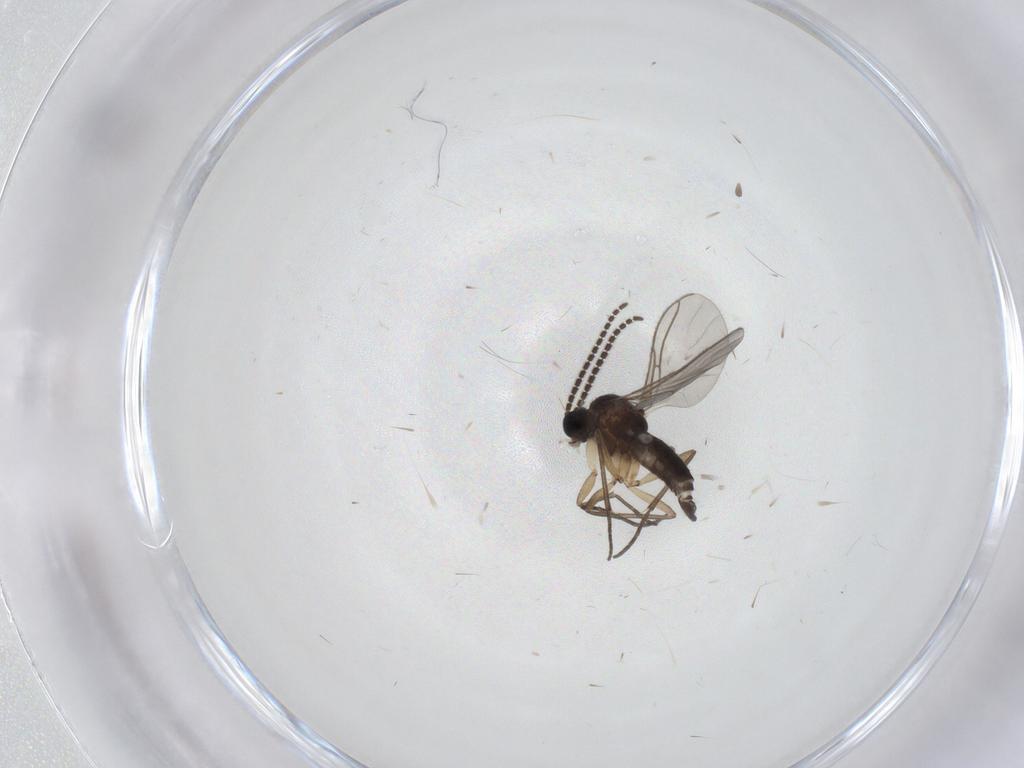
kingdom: Animalia
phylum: Arthropoda
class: Insecta
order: Diptera
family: Sciaridae
